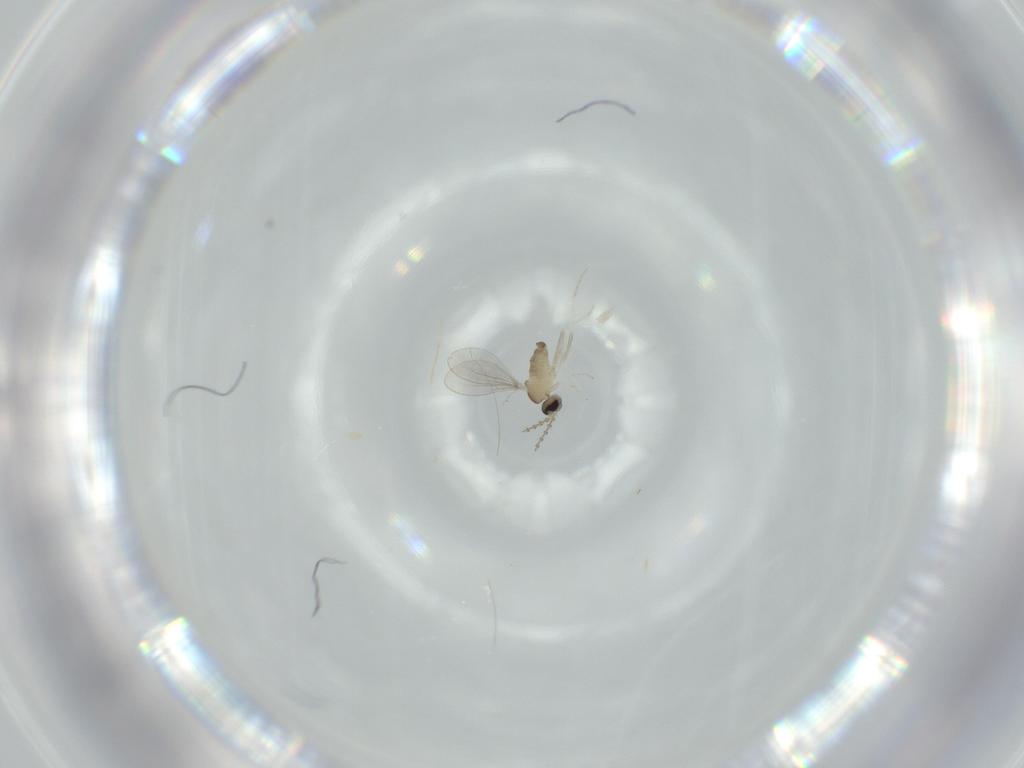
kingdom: Animalia
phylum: Arthropoda
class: Insecta
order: Diptera
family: Cecidomyiidae
